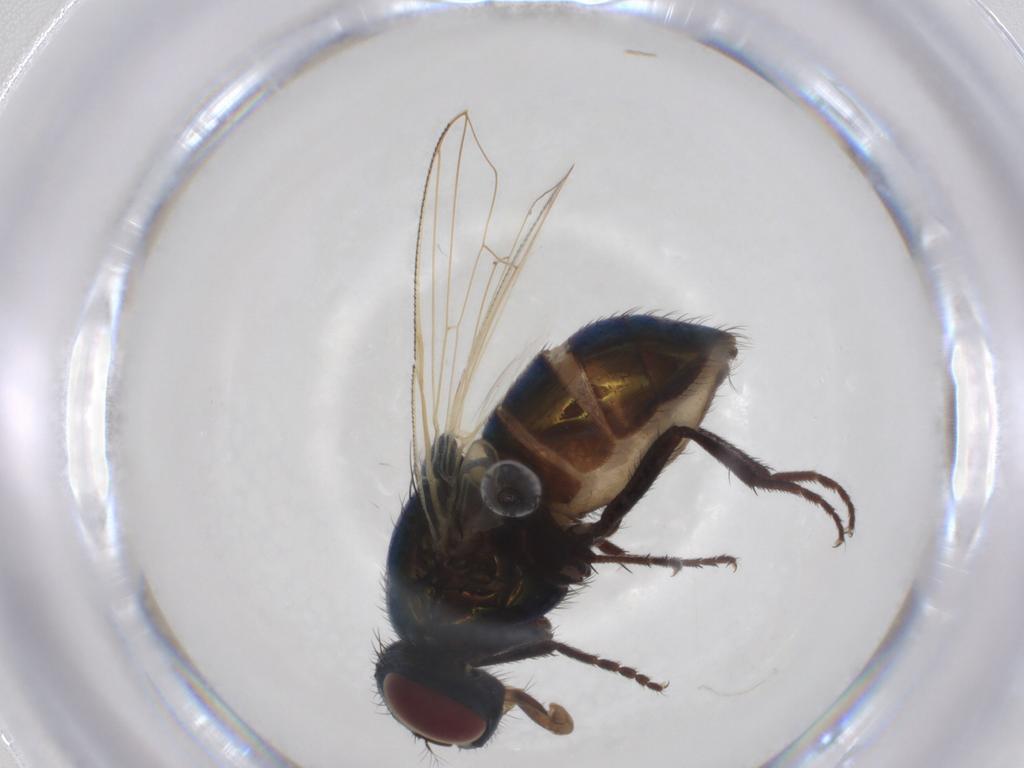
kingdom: Animalia
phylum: Arthropoda
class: Insecta
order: Diptera
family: Muscidae
